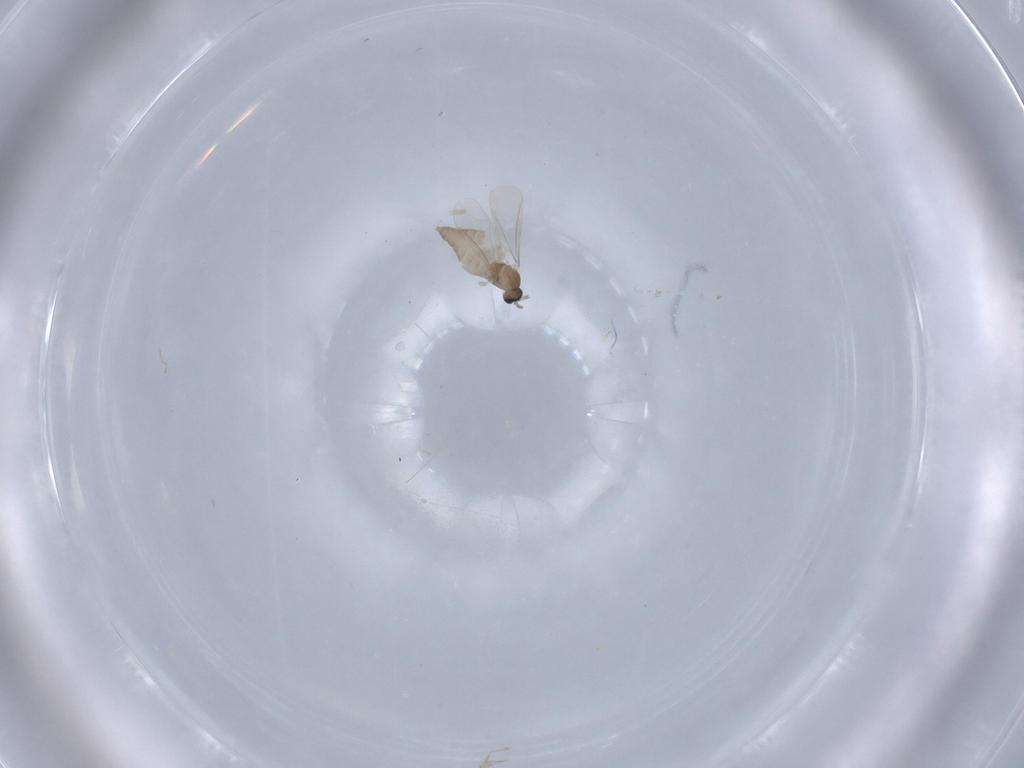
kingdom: Animalia
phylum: Arthropoda
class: Insecta
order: Diptera
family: Cecidomyiidae
